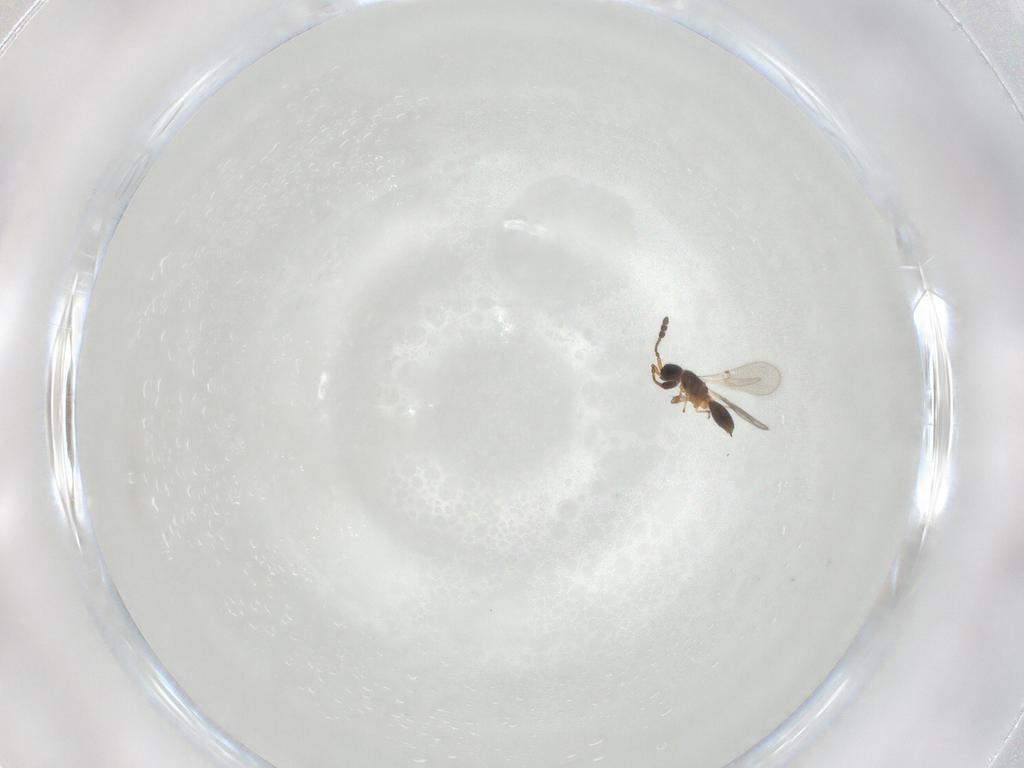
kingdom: Animalia
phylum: Arthropoda
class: Insecta
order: Hymenoptera
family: Diapriidae
